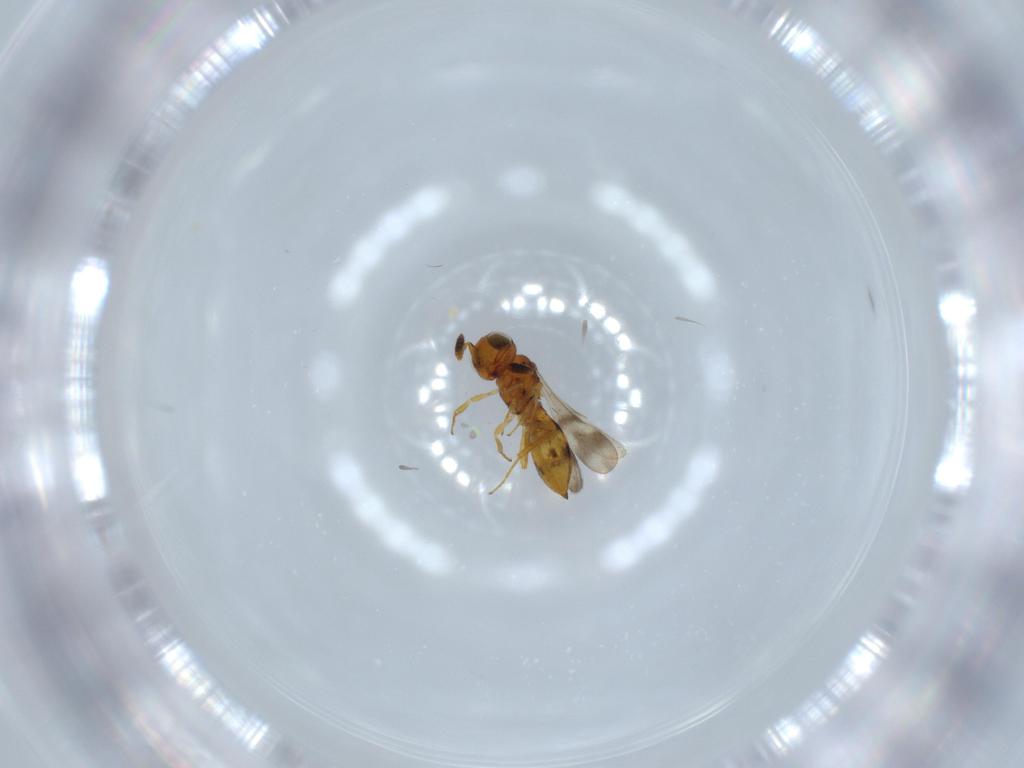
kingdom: Animalia
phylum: Arthropoda
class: Insecta
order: Hymenoptera
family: Scelionidae
